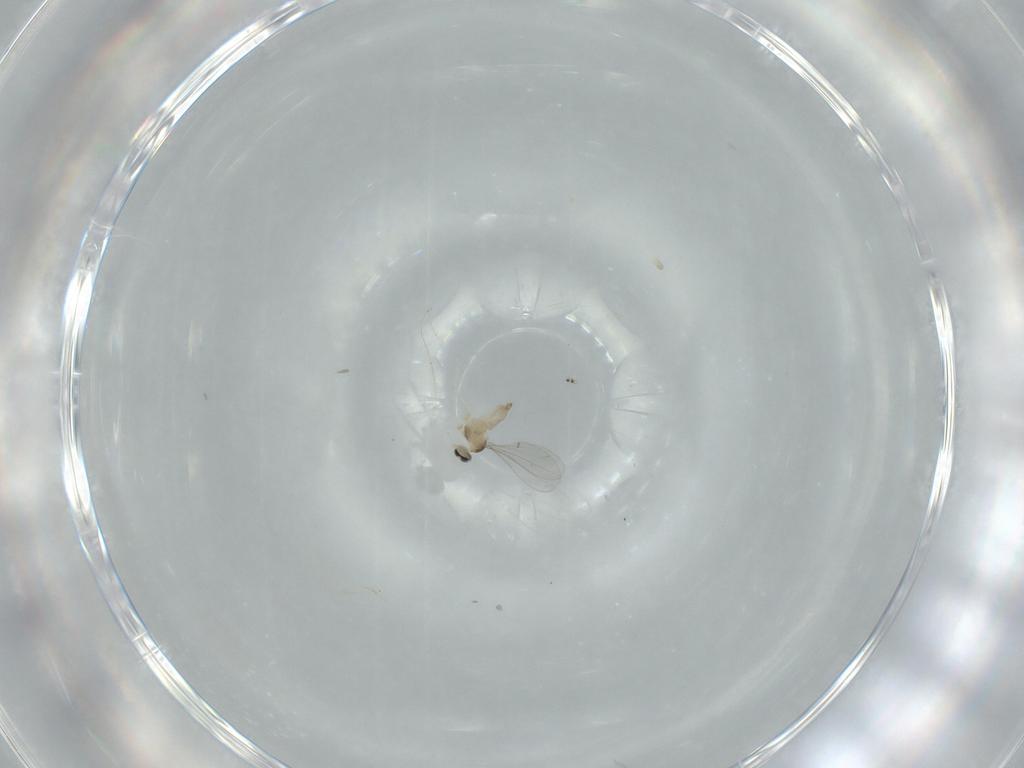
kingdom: Animalia
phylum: Arthropoda
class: Insecta
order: Diptera
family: Cecidomyiidae
